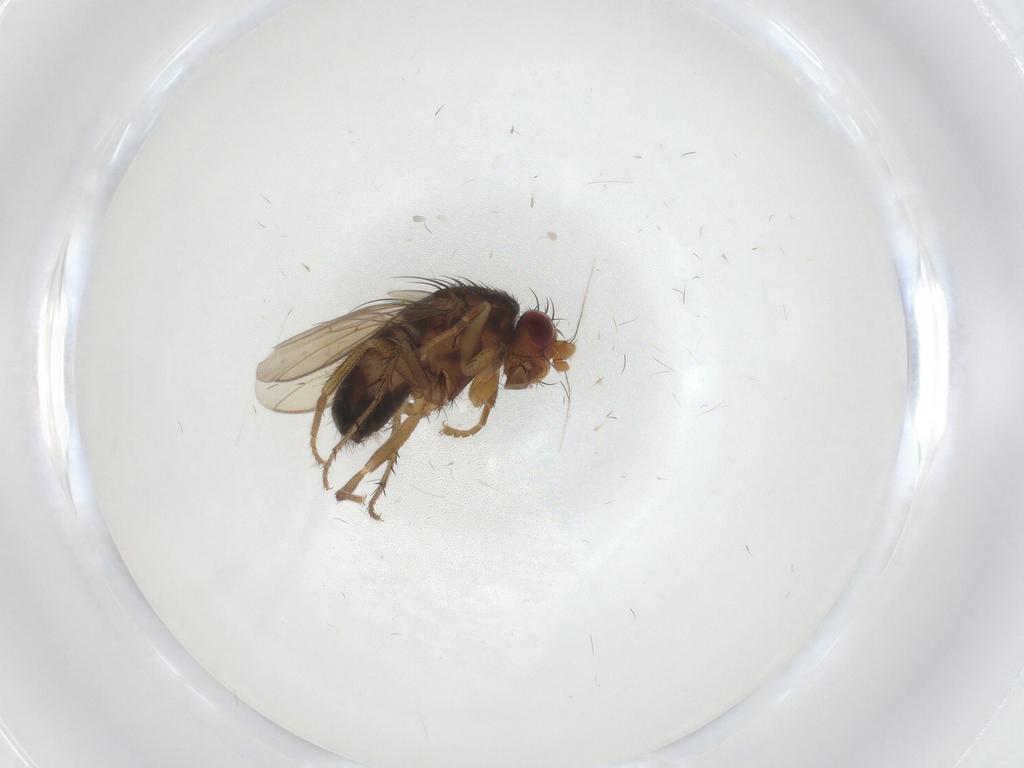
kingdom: Animalia
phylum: Arthropoda
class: Insecta
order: Diptera
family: Sphaeroceridae
